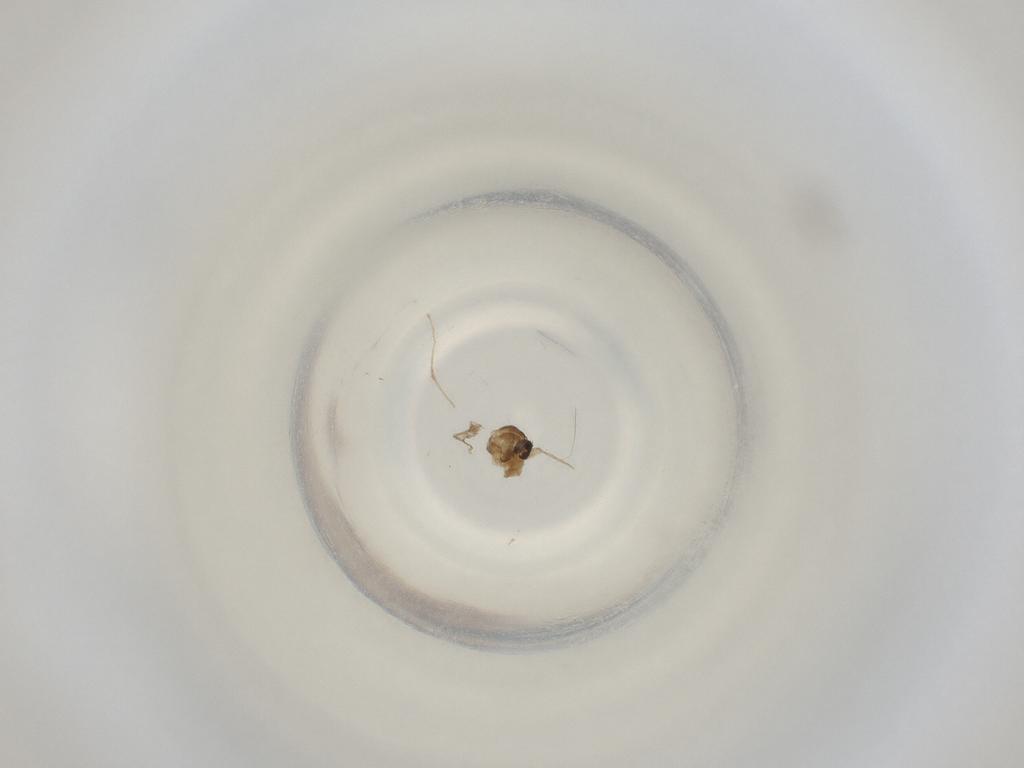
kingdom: Animalia
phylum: Arthropoda
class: Insecta
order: Diptera
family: Cecidomyiidae
